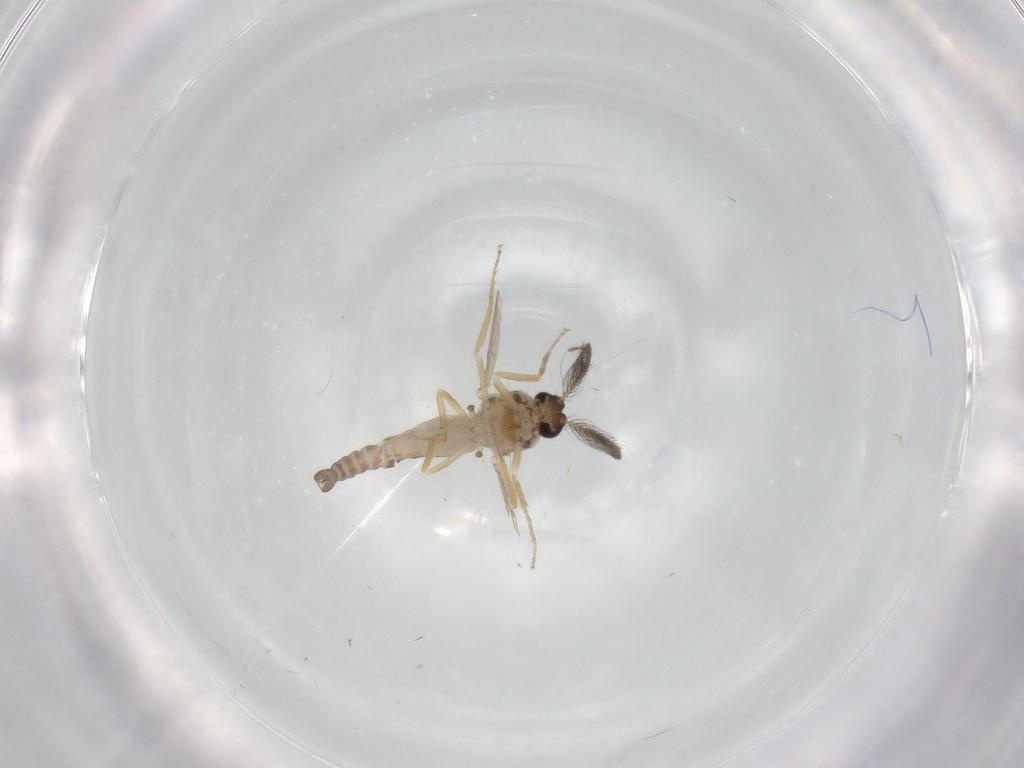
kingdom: Animalia
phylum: Arthropoda
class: Insecta
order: Diptera
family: Ceratopogonidae
